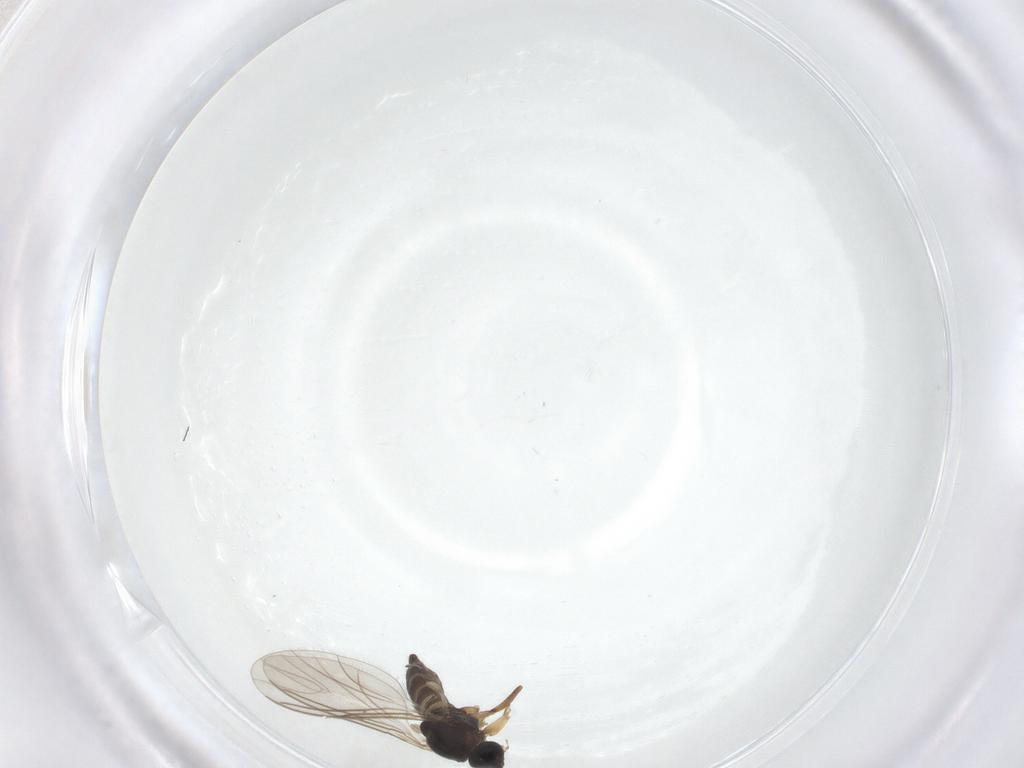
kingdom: Animalia
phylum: Arthropoda
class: Insecta
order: Diptera
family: Sciaridae
